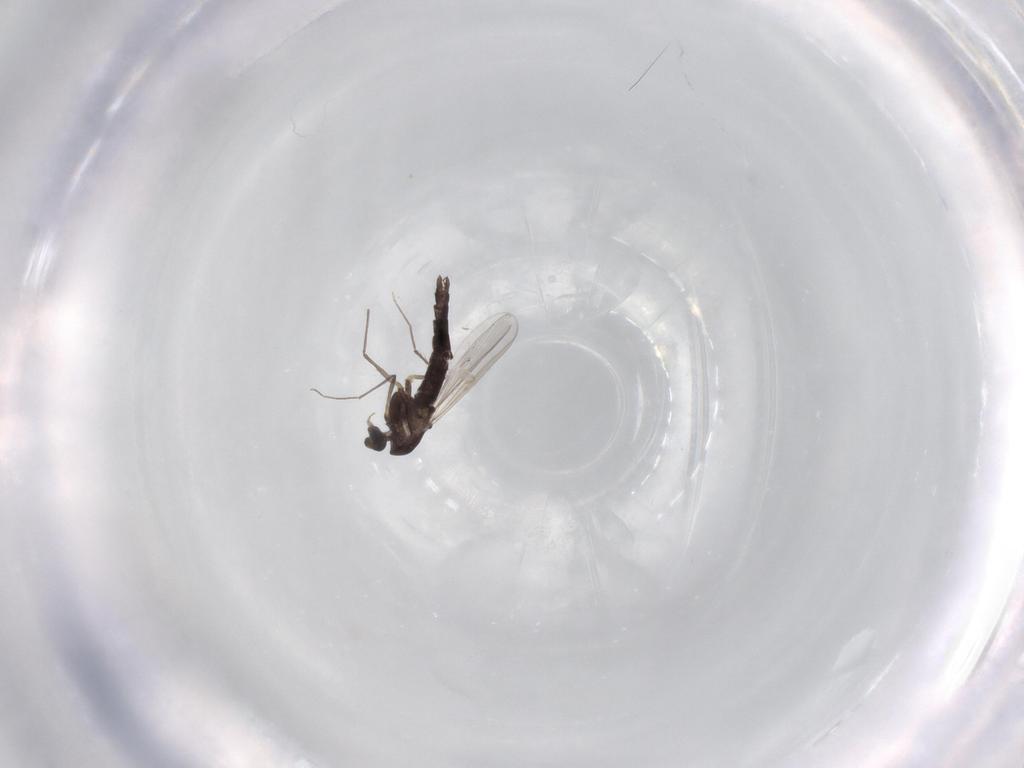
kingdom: Animalia
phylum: Arthropoda
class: Insecta
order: Diptera
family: Chironomidae
